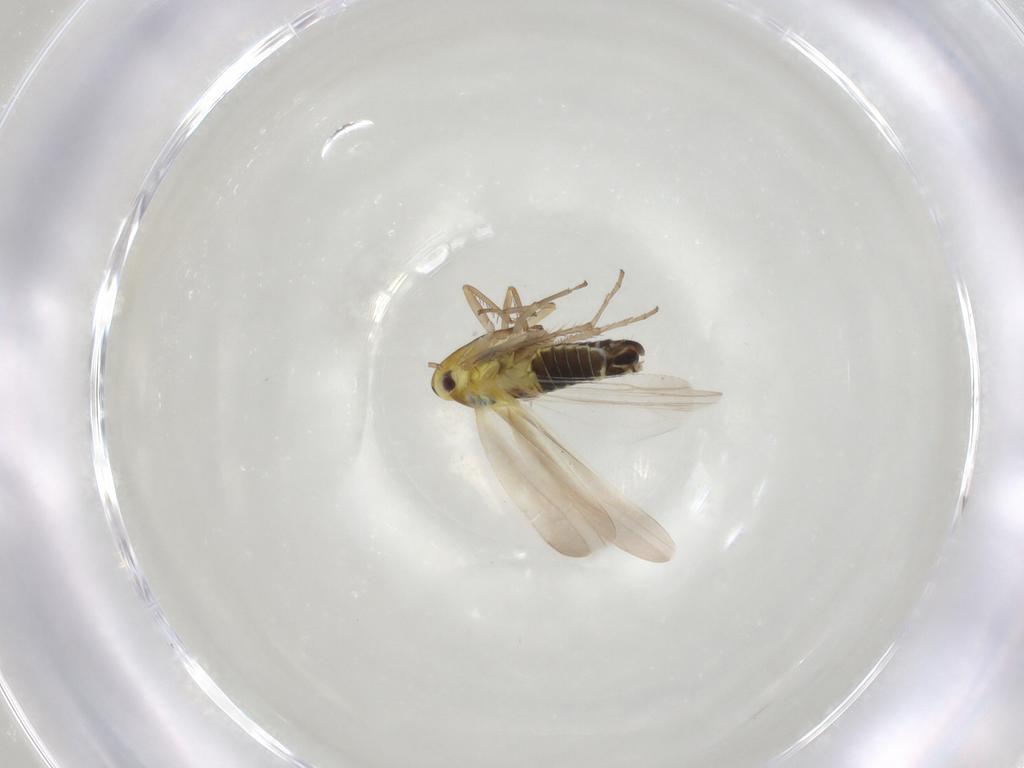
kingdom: Animalia
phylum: Arthropoda
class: Insecta
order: Hemiptera
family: Cicadellidae
